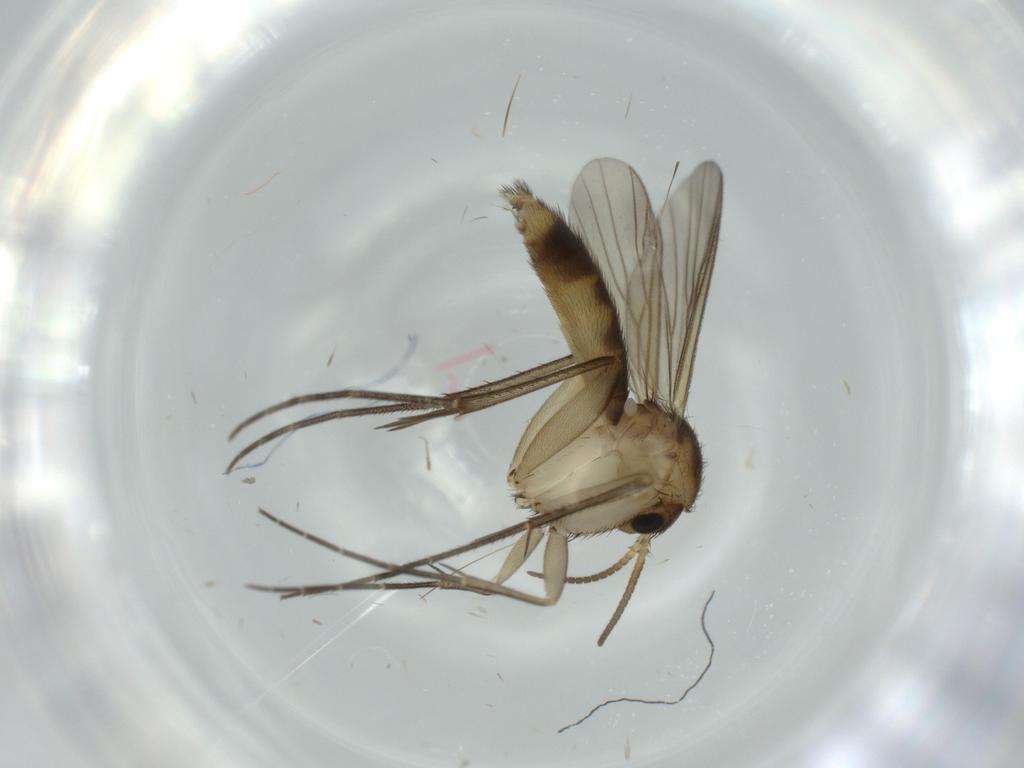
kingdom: Animalia
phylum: Arthropoda
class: Insecta
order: Diptera
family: Mycetophilidae
